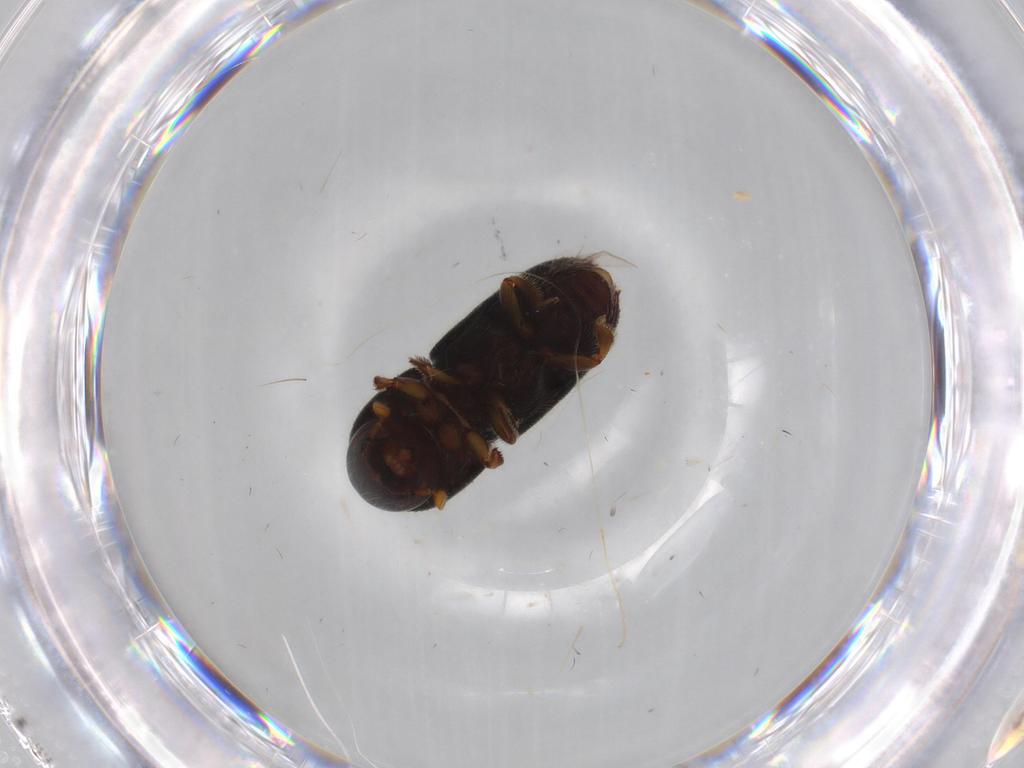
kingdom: Animalia
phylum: Arthropoda
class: Insecta
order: Coleoptera
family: Curculionidae
